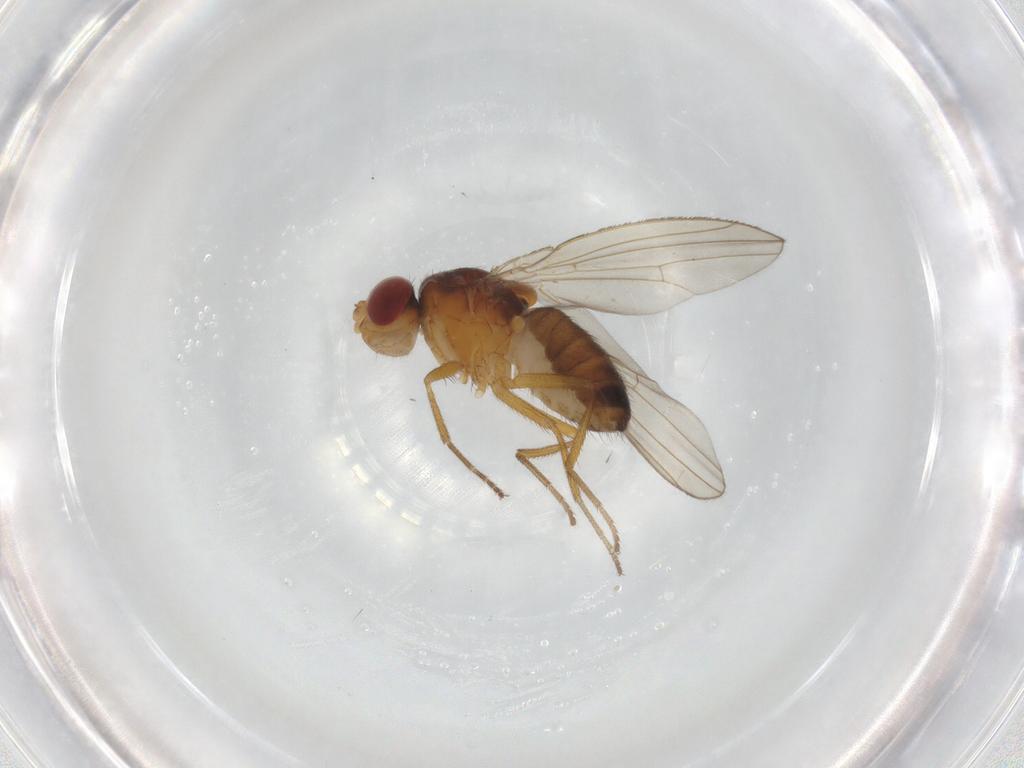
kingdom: Animalia
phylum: Arthropoda
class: Insecta
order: Diptera
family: Drosophilidae
